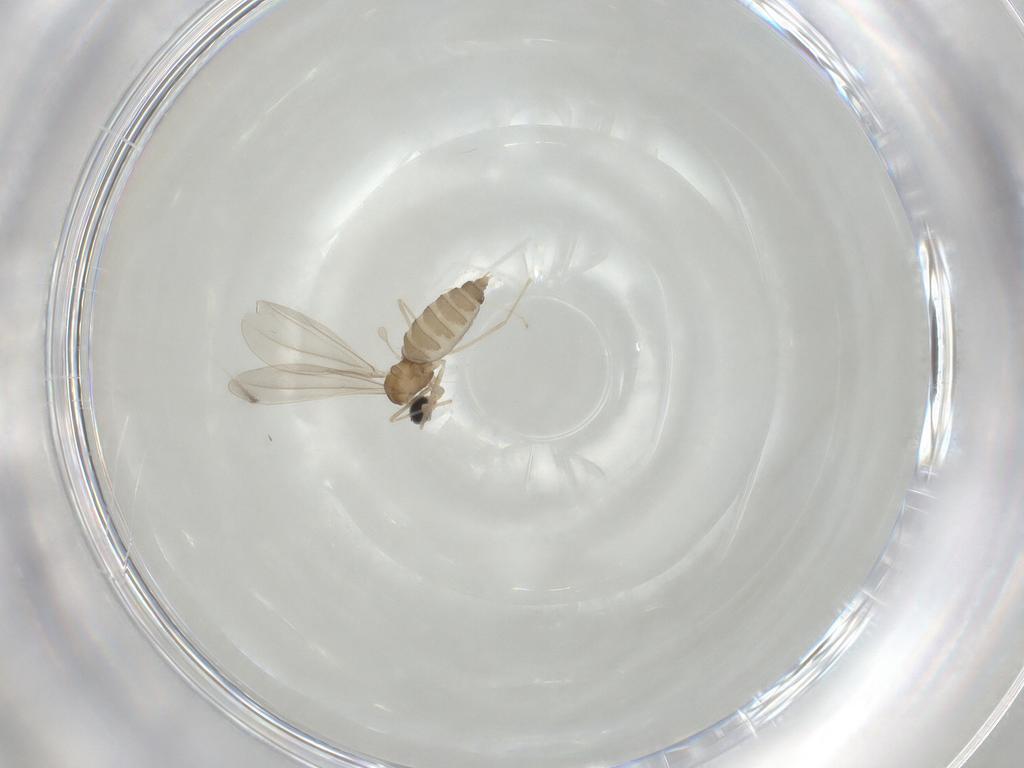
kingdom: Animalia
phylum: Arthropoda
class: Insecta
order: Diptera
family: Cecidomyiidae
